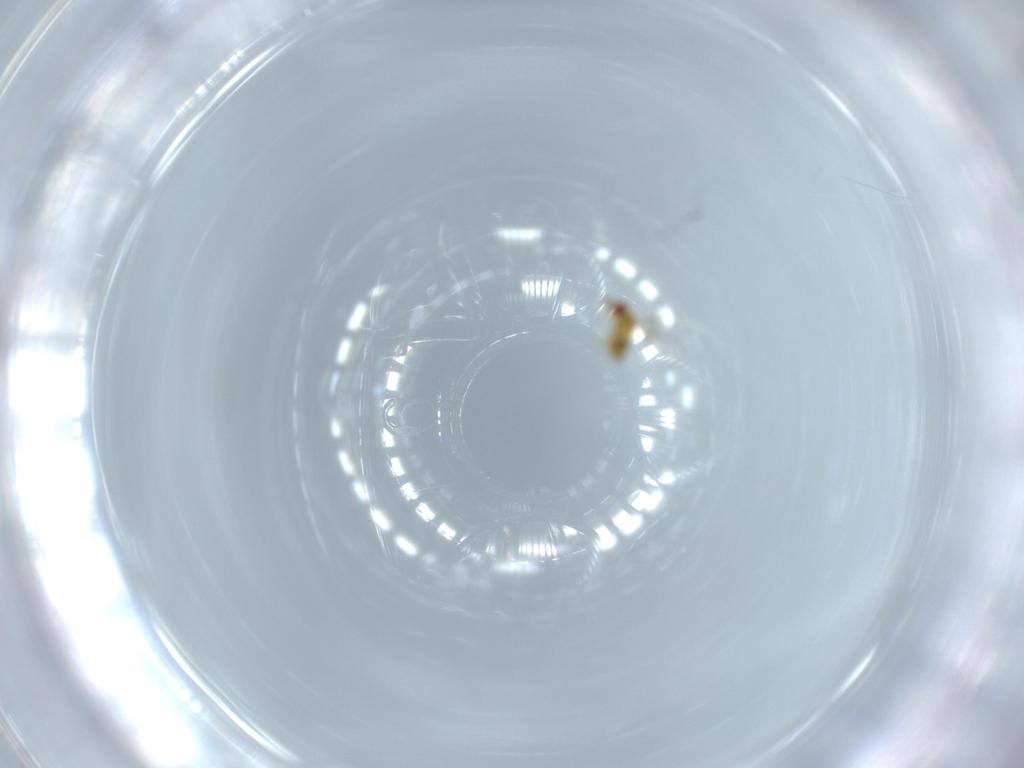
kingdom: Animalia
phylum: Arthropoda
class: Insecta
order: Hymenoptera
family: Trichogrammatidae
